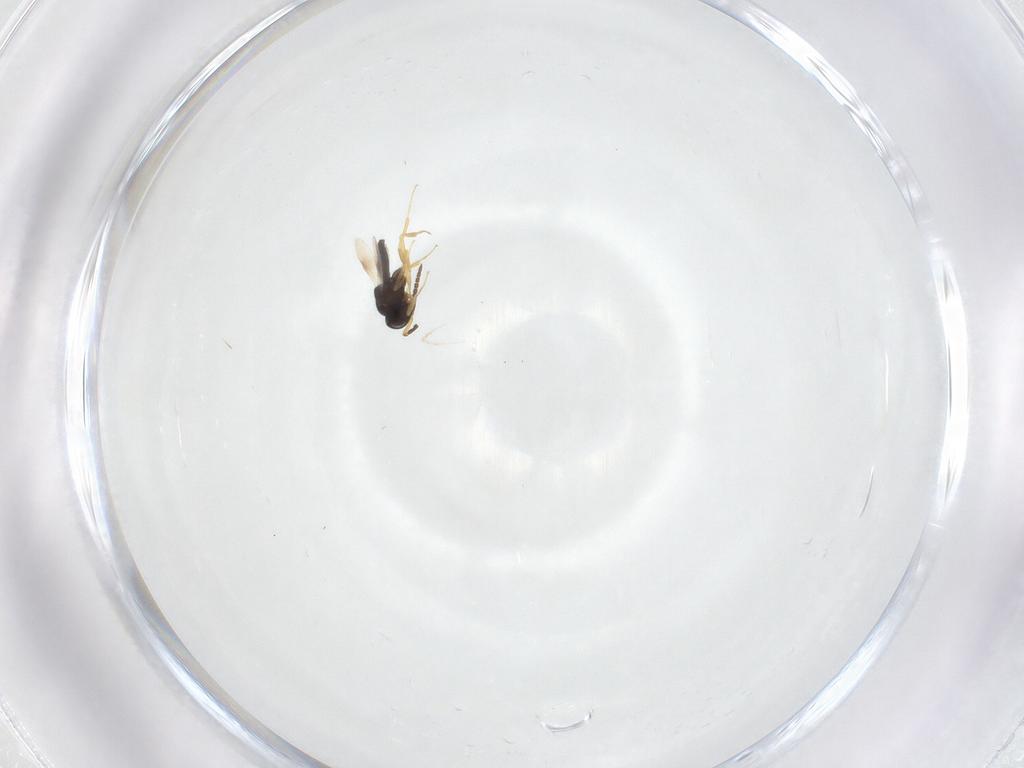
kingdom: Animalia
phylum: Arthropoda
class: Insecta
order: Hymenoptera
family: Scelionidae
